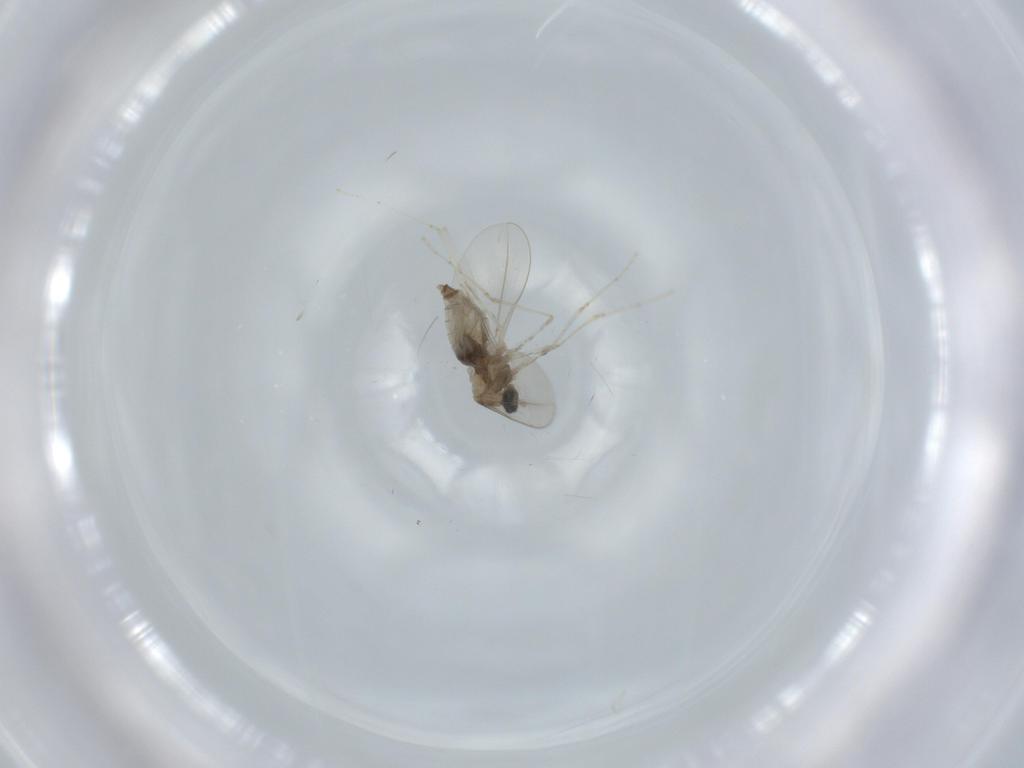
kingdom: Animalia
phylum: Arthropoda
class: Insecta
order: Diptera
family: Cecidomyiidae
